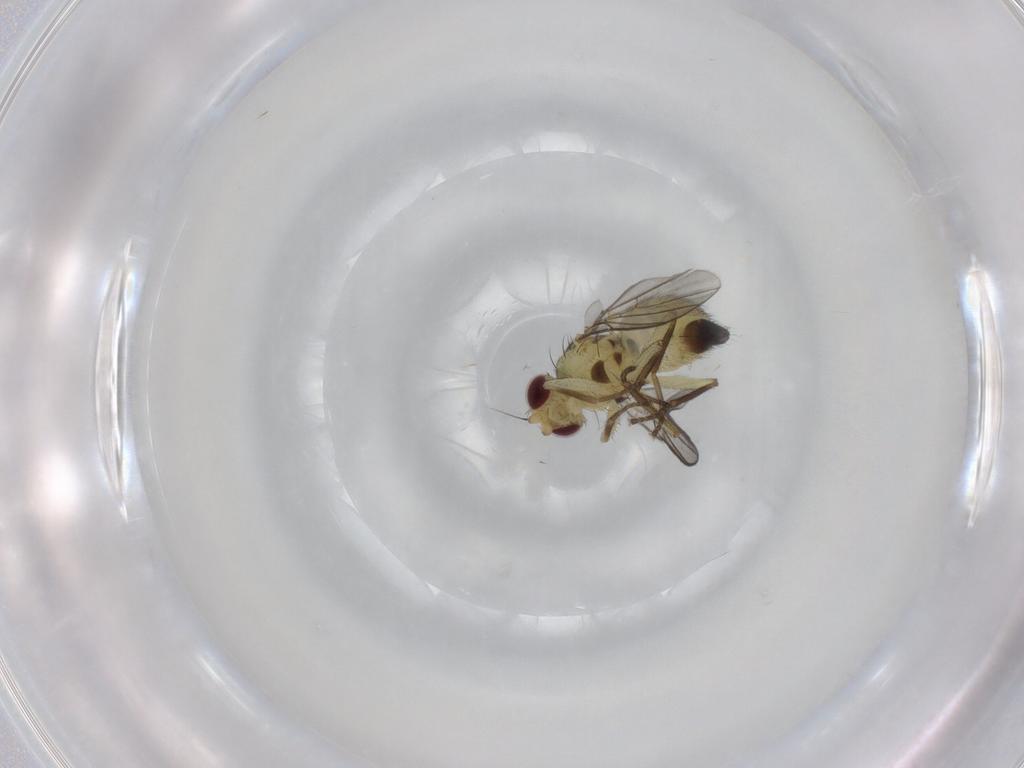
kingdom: Animalia
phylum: Arthropoda
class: Insecta
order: Diptera
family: Agromyzidae
